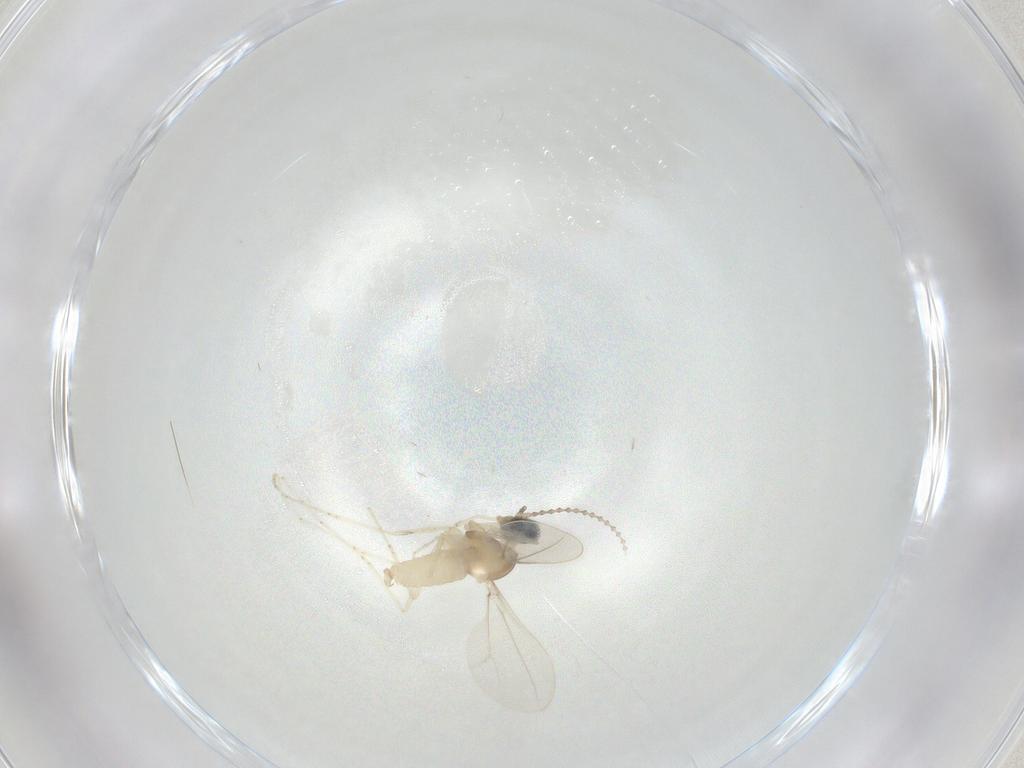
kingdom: Animalia
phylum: Arthropoda
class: Insecta
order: Diptera
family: Cecidomyiidae
